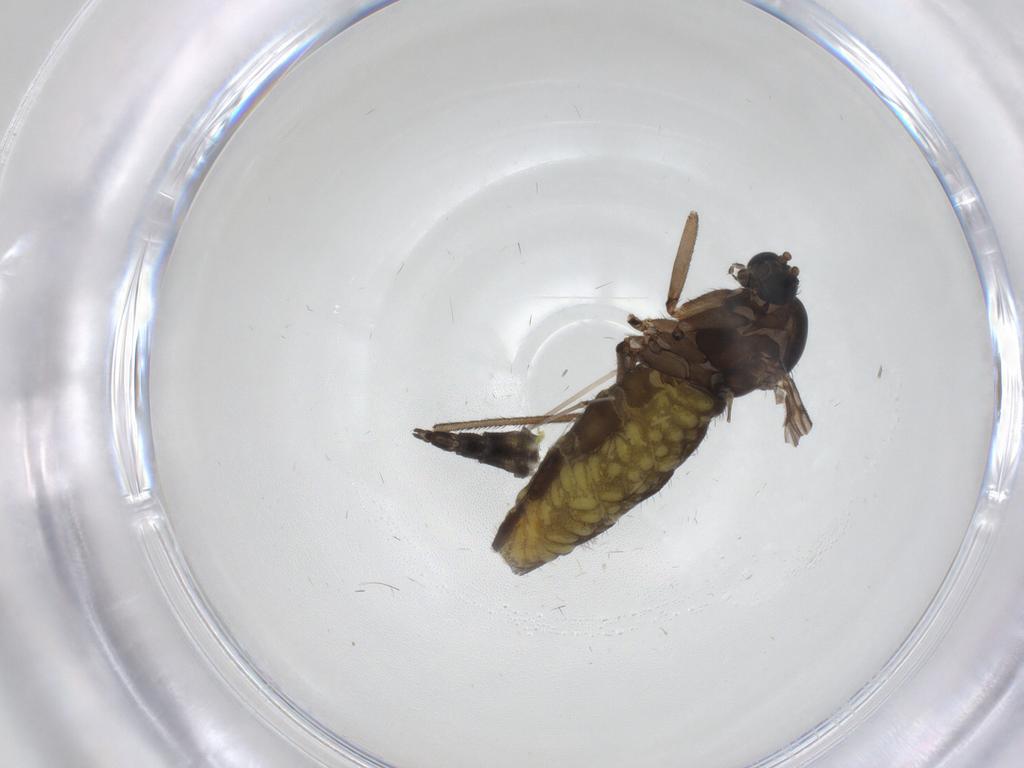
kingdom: Animalia
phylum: Arthropoda
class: Insecta
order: Diptera
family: Sciaridae
